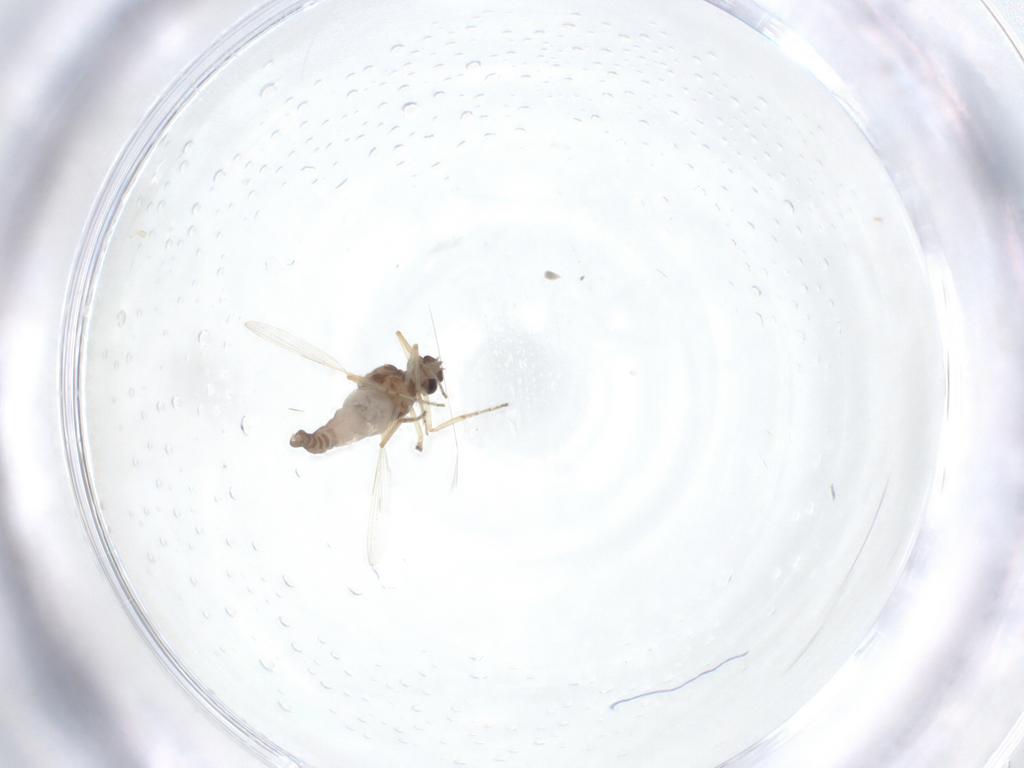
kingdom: Animalia
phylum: Arthropoda
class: Insecta
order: Diptera
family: Ceratopogonidae
